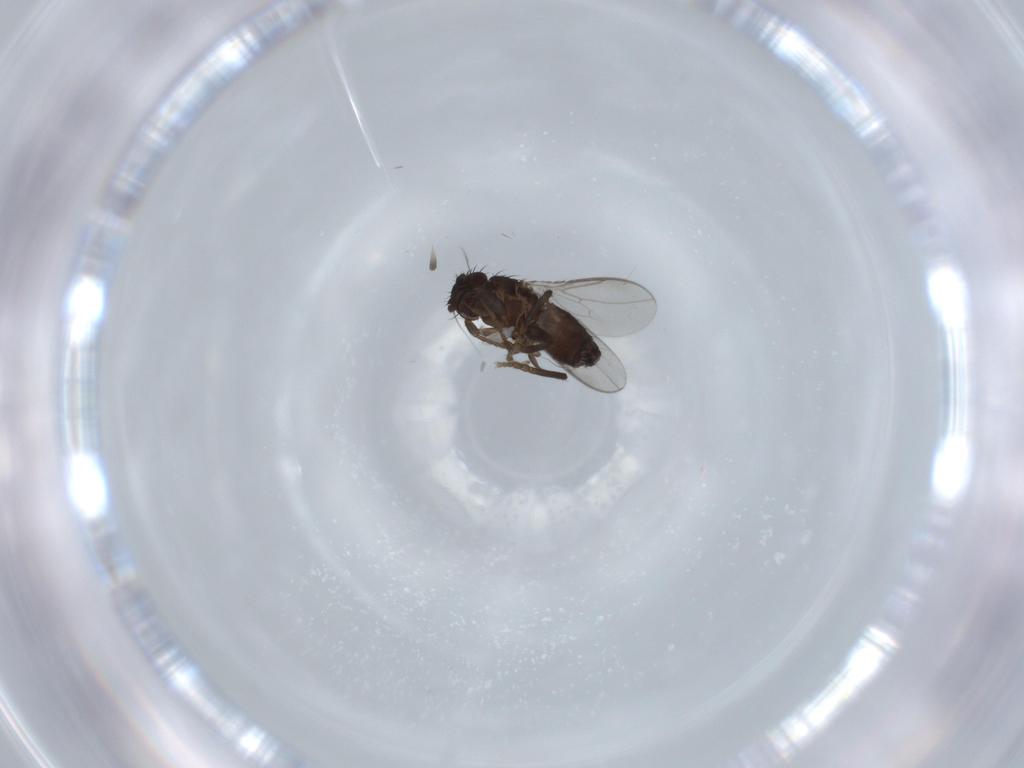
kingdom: Animalia
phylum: Arthropoda
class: Insecta
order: Diptera
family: Sphaeroceridae
